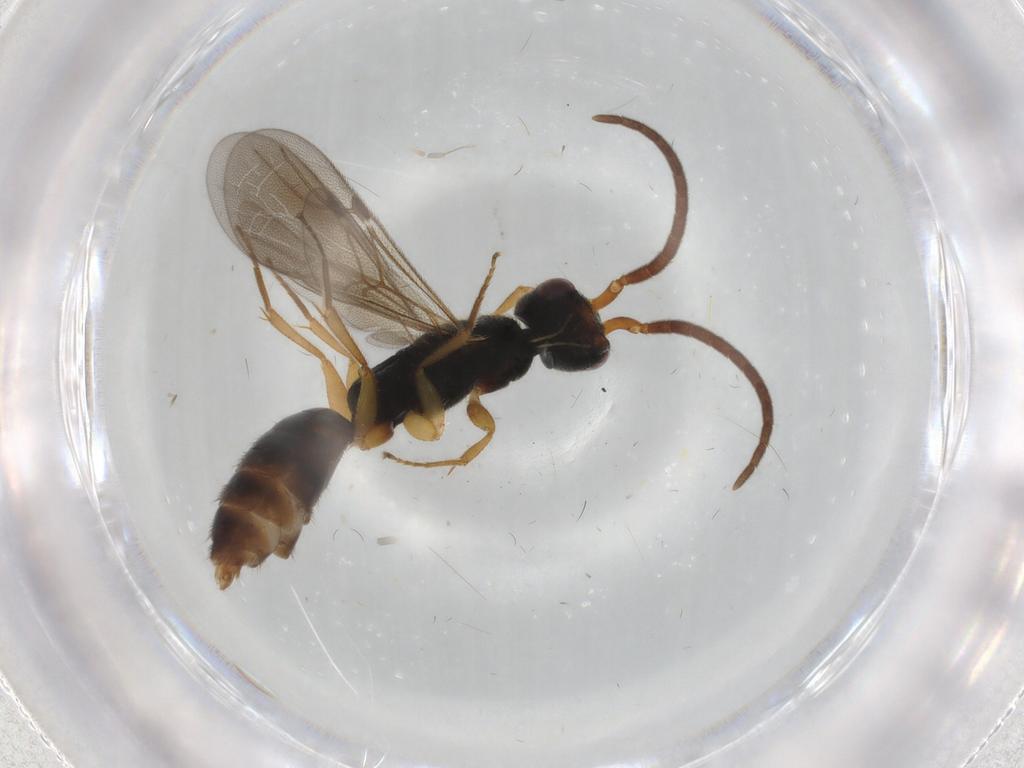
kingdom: Animalia
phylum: Arthropoda
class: Insecta
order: Hymenoptera
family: Bethylidae
